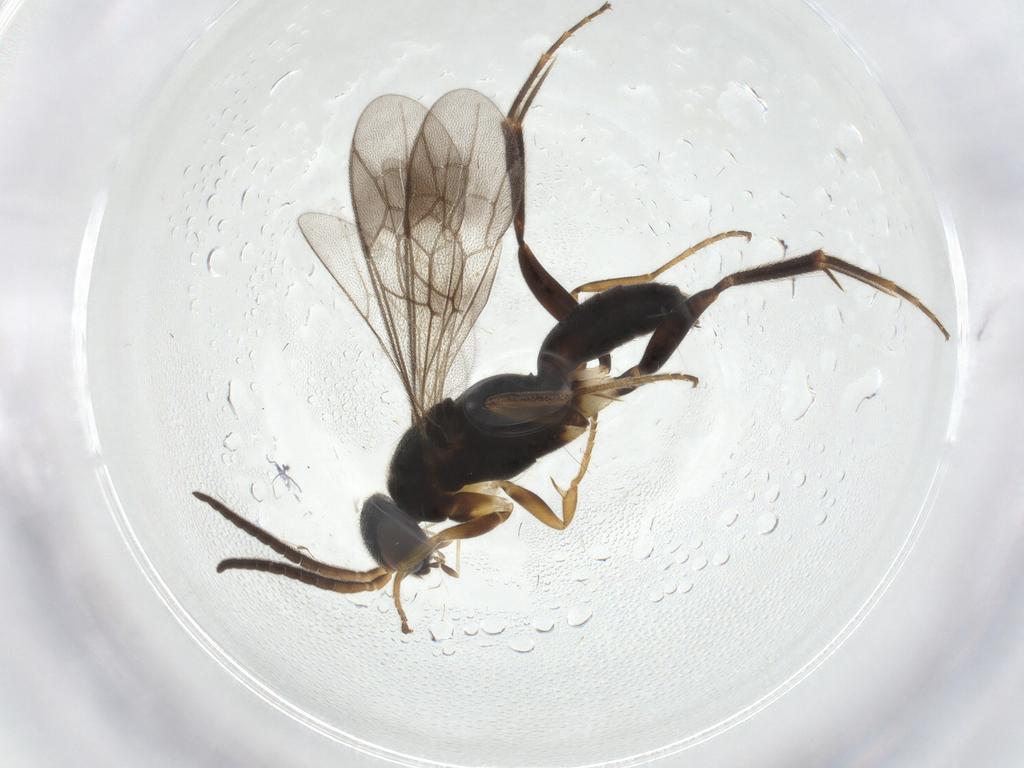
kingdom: Animalia
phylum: Arthropoda
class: Insecta
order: Hymenoptera
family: Pompilidae
